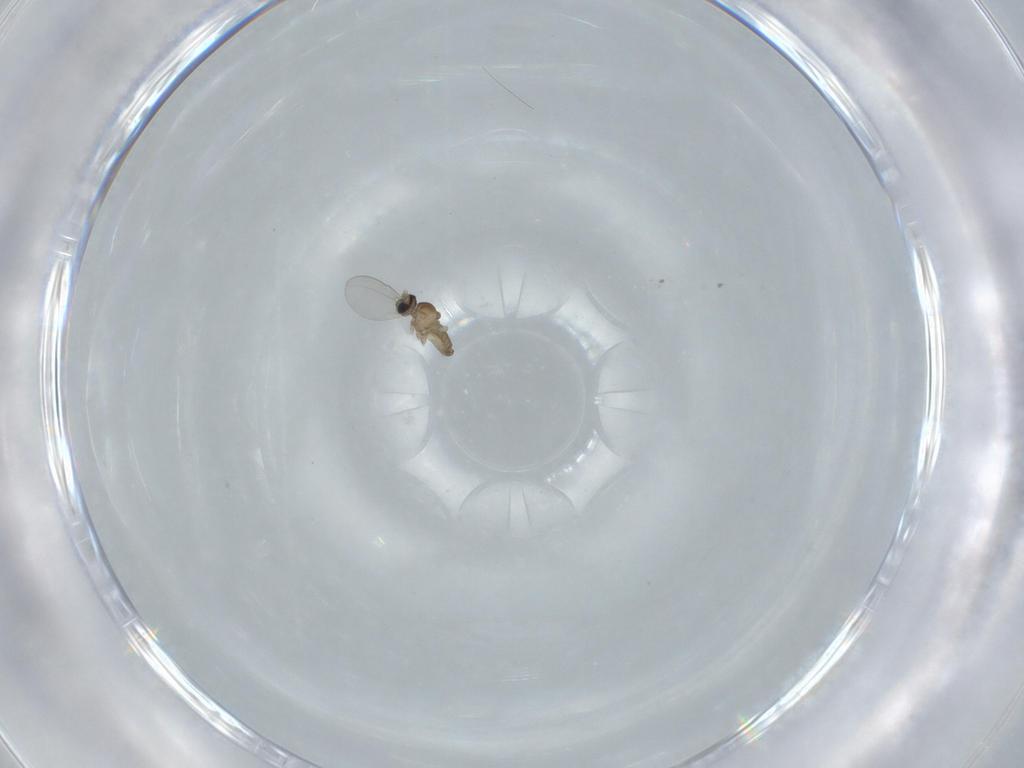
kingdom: Animalia
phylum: Arthropoda
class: Insecta
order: Diptera
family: Cecidomyiidae
